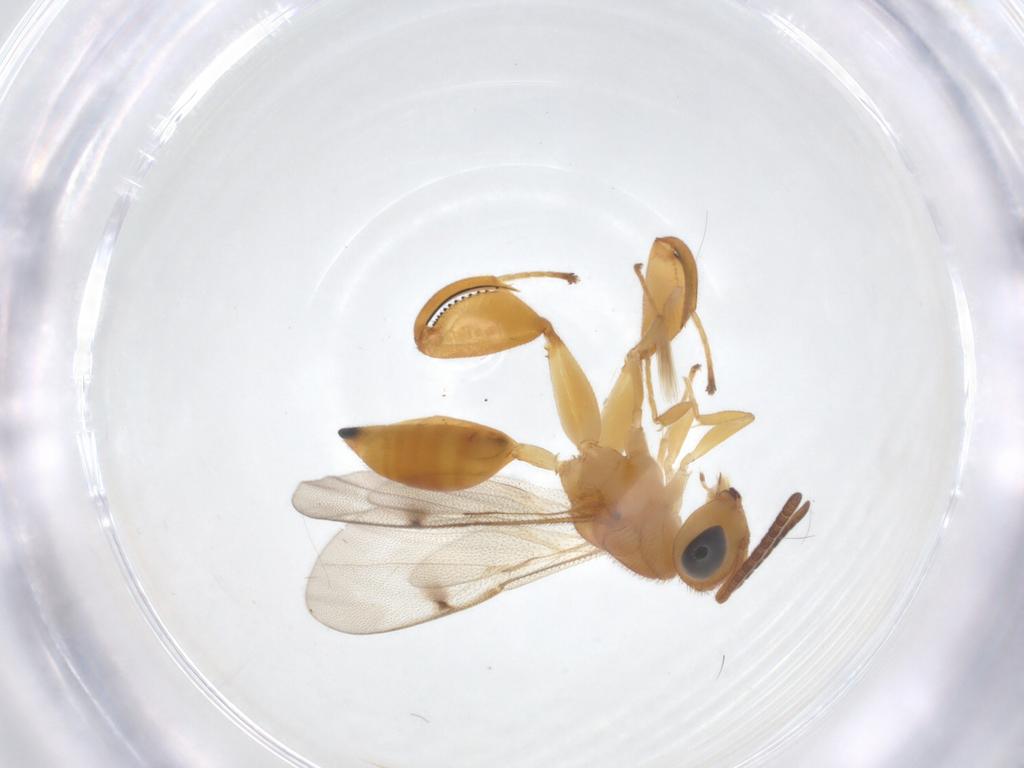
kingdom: Animalia
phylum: Arthropoda
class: Insecta
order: Hymenoptera
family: Chalcididae
